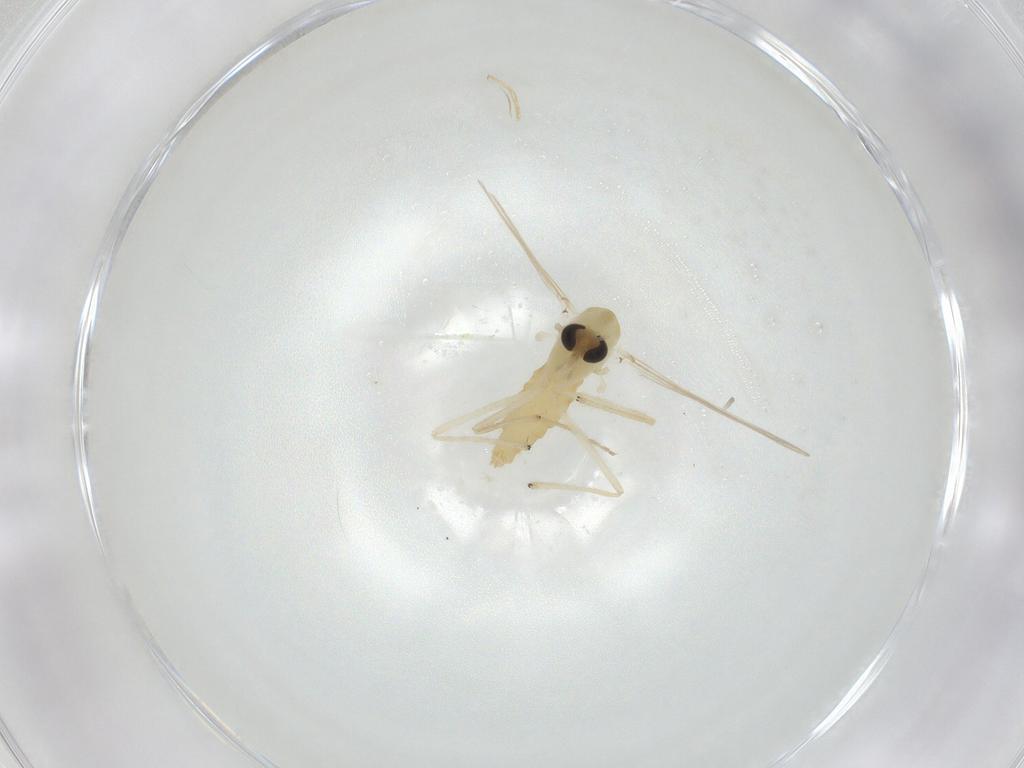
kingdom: Animalia
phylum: Arthropoda
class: Insecta
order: Diptera
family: Chironomidae
